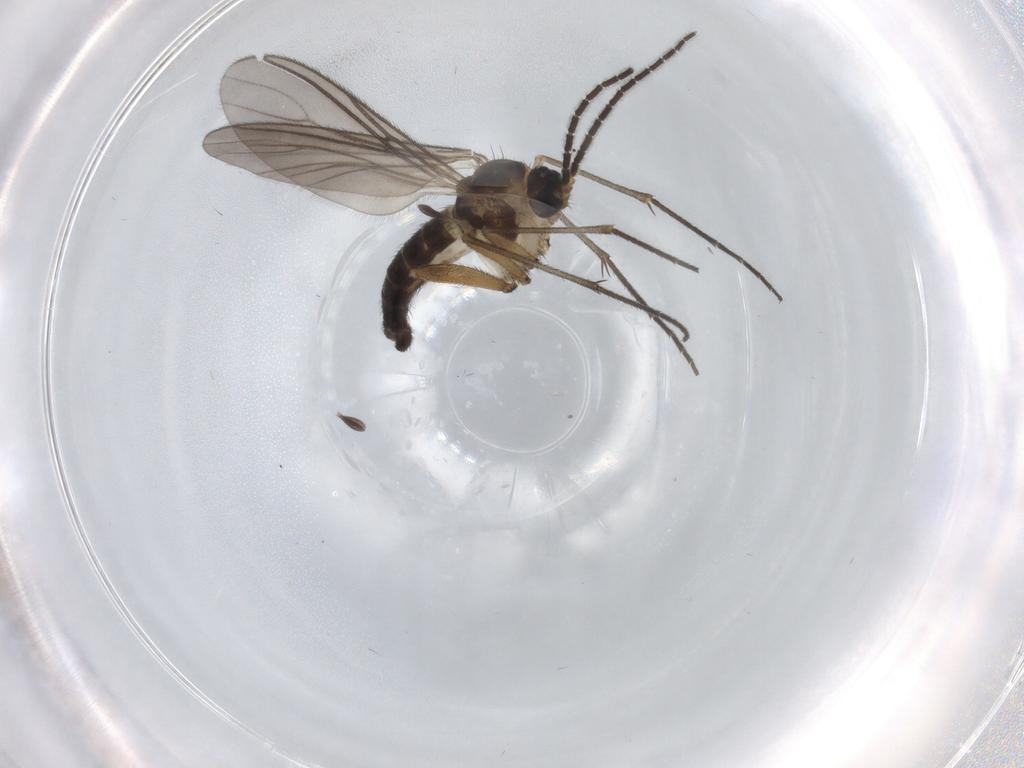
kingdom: Animalia
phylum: Arthropoda
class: Insecta
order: Diptera
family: Sciaridae
